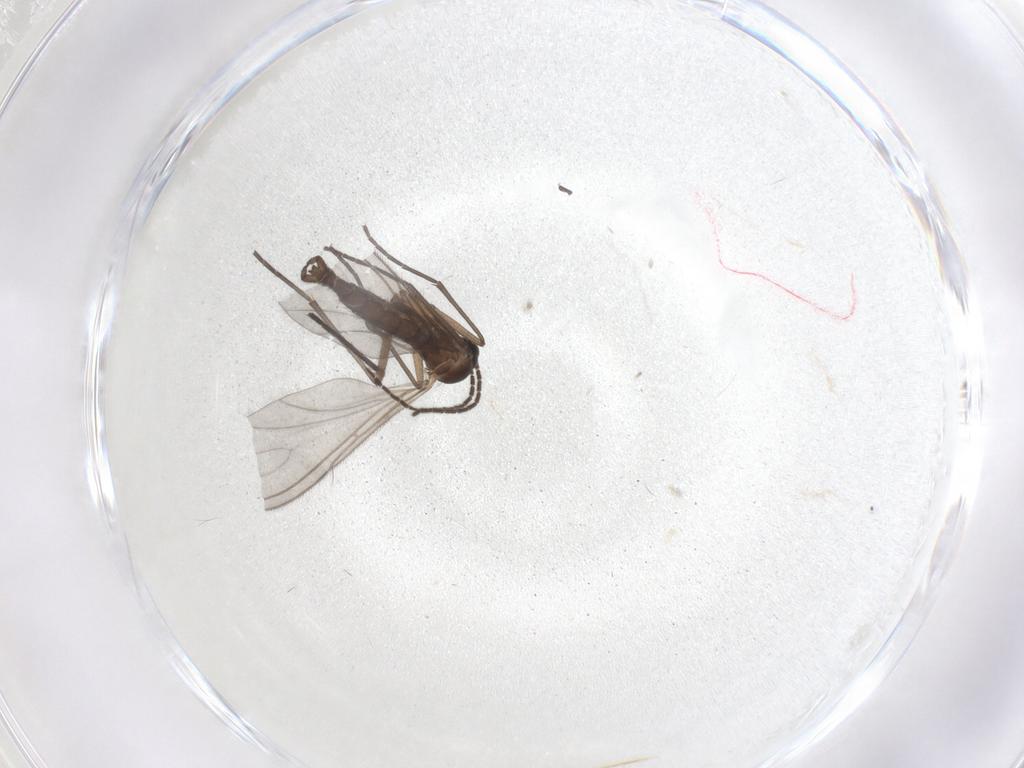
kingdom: Animalia
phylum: Arthropoda
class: Insecta
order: Diptera
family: Sciaridae
